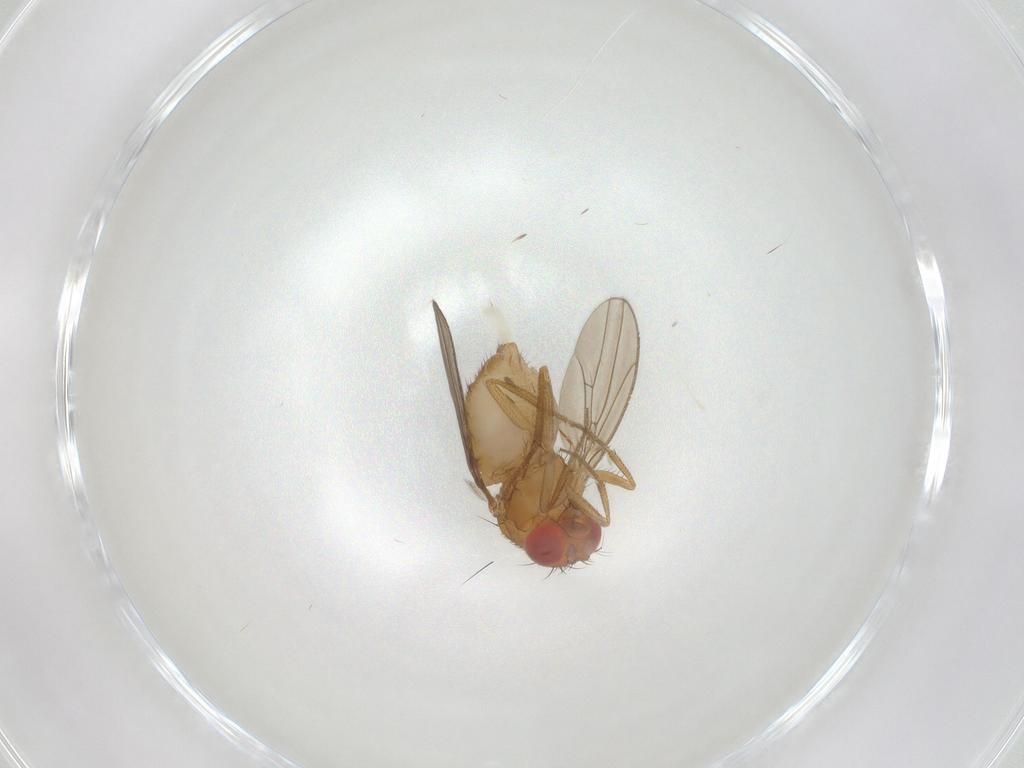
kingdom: Animalia
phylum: Arthropoda
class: Insecta
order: Diptera
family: Drosophilidae
